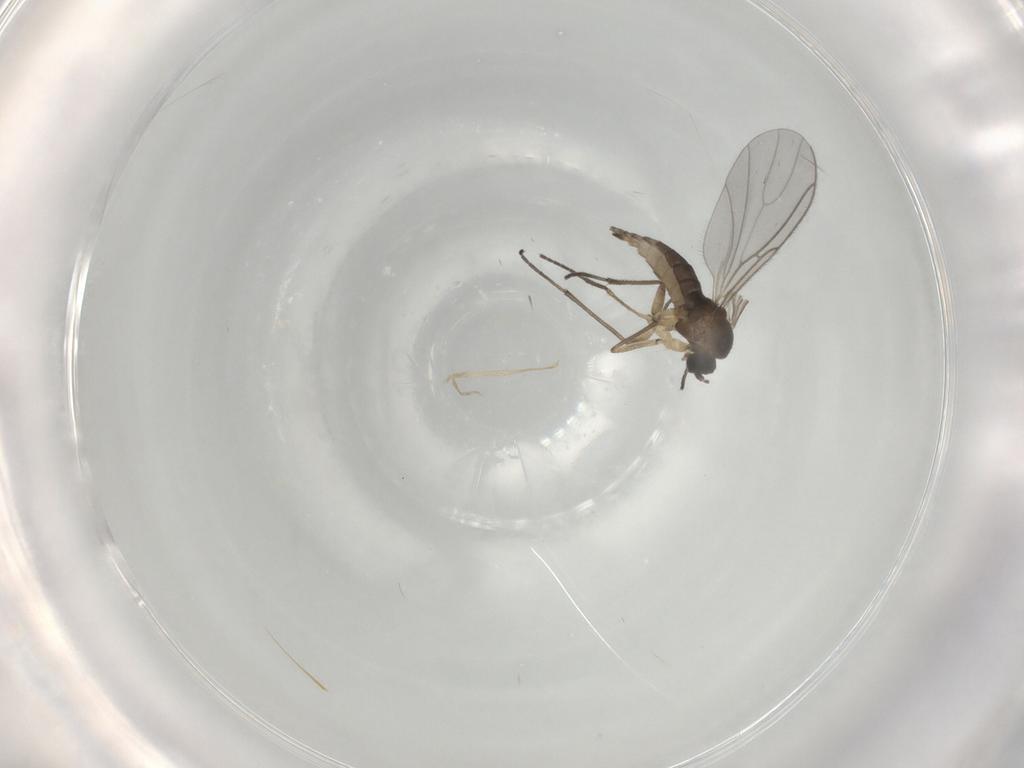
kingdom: Animalia
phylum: Arthropoda
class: Insecta
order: Diptera
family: Sciaridae
